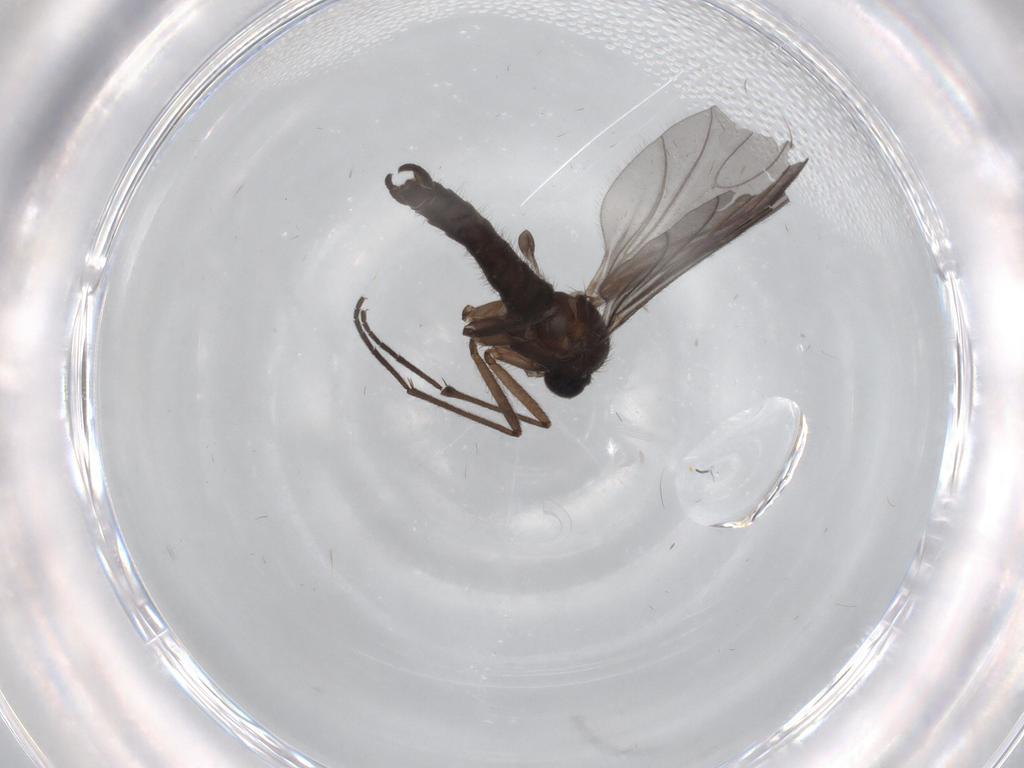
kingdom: Animalia
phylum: Arthropoda
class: Insecta
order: Diptera
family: Sciaridae
